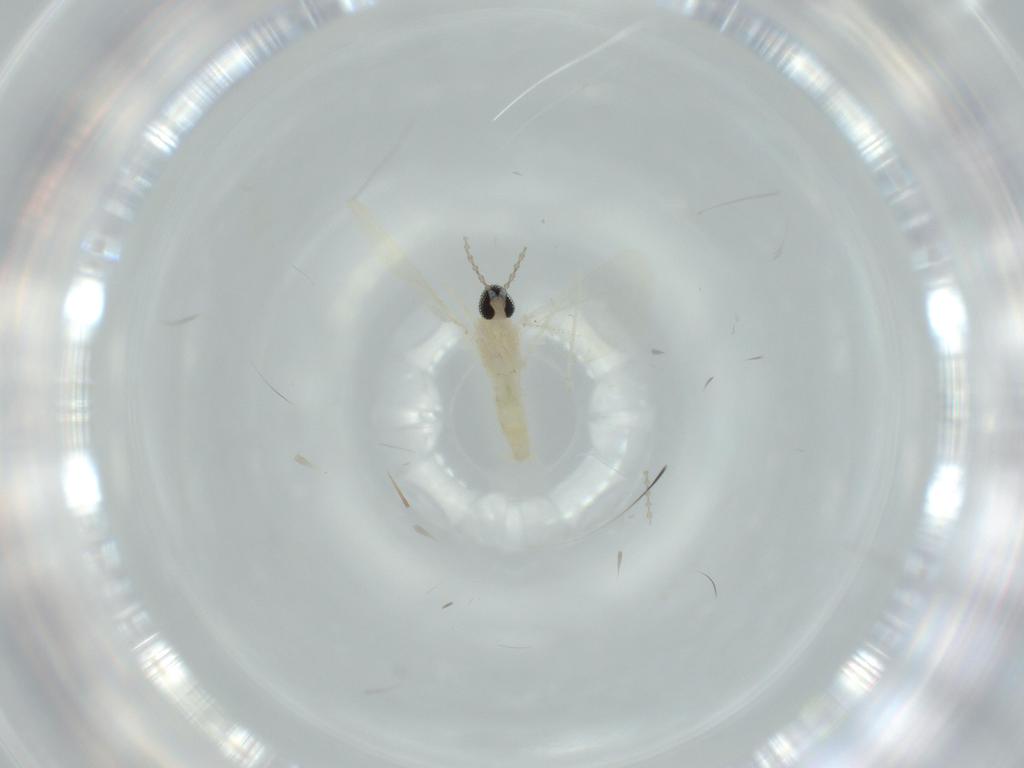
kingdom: Animalia
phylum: Arthropoda
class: Insecta
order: Diptera
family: Cecidomyiidae
